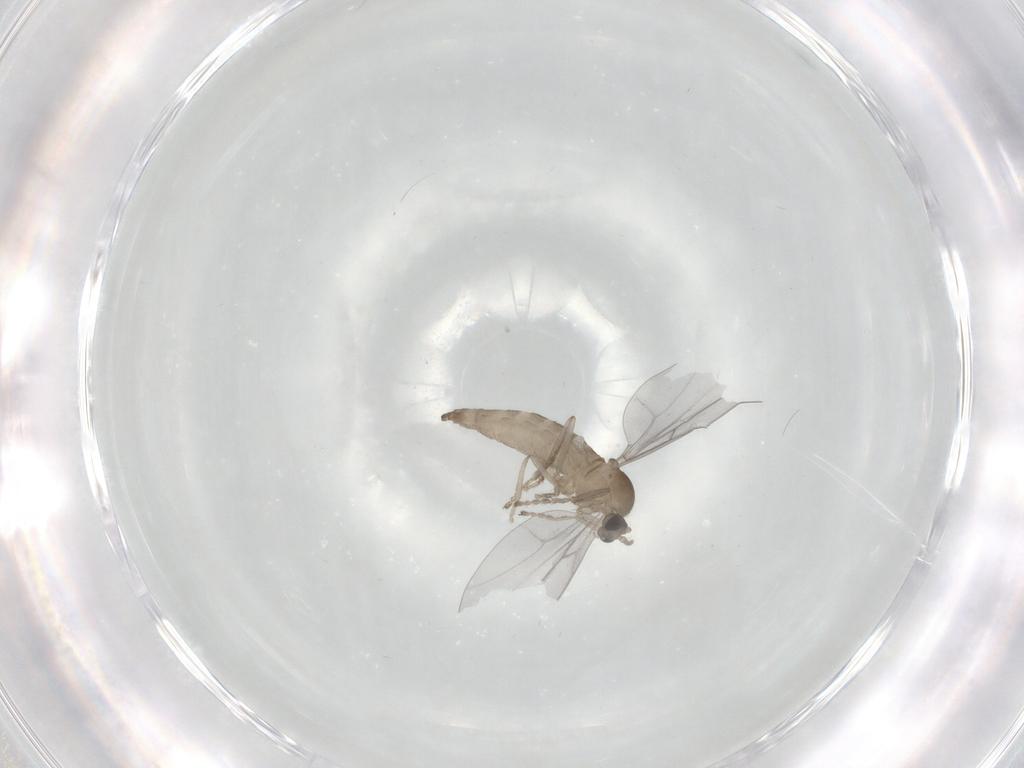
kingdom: Animalia
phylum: Arthropoda
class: Insecta
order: Diptera
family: Cecidomyiidae
